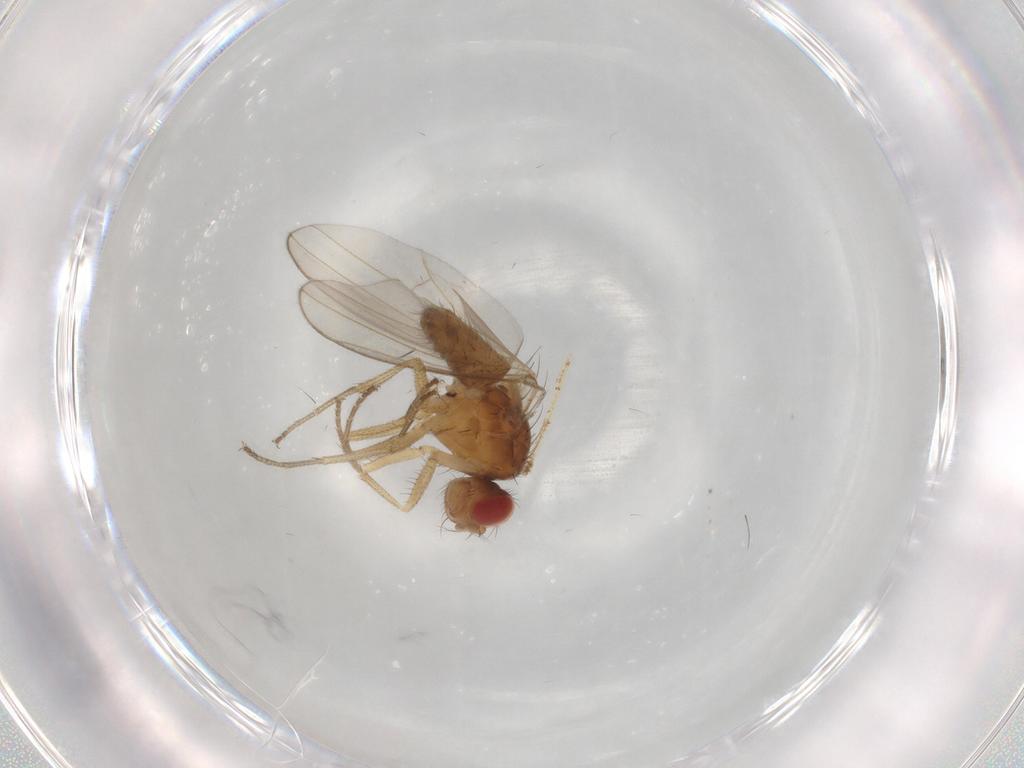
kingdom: Animalia
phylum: Arthropoda
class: Insecta
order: Diptera
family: Drosophilidae
